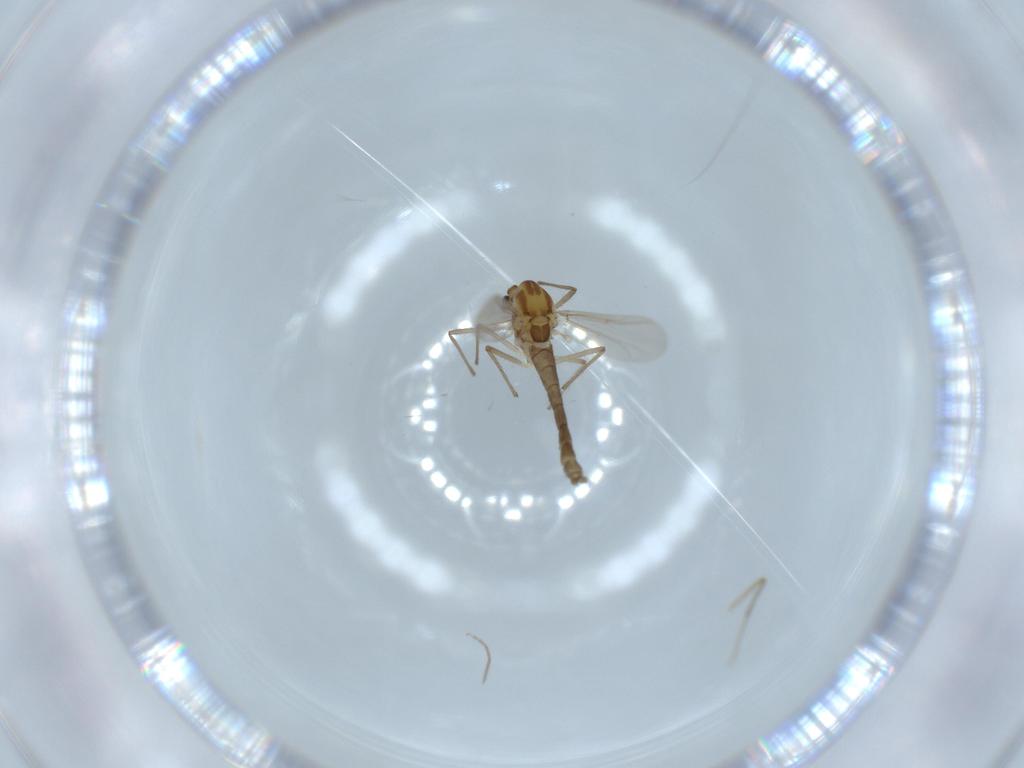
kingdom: Animalia
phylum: Arthropoda
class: Insecta
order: Diptera
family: Chironomidae
